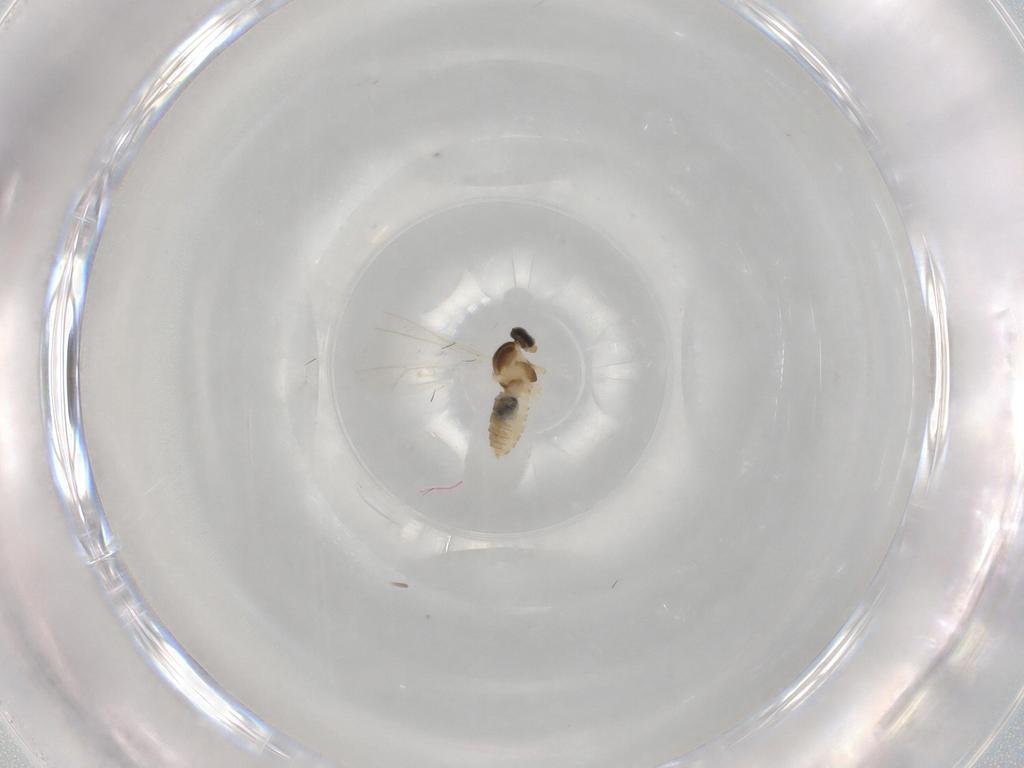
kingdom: Animalia
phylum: Arthropoda
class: Insecta
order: Diptera
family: Cecidomyiidae
